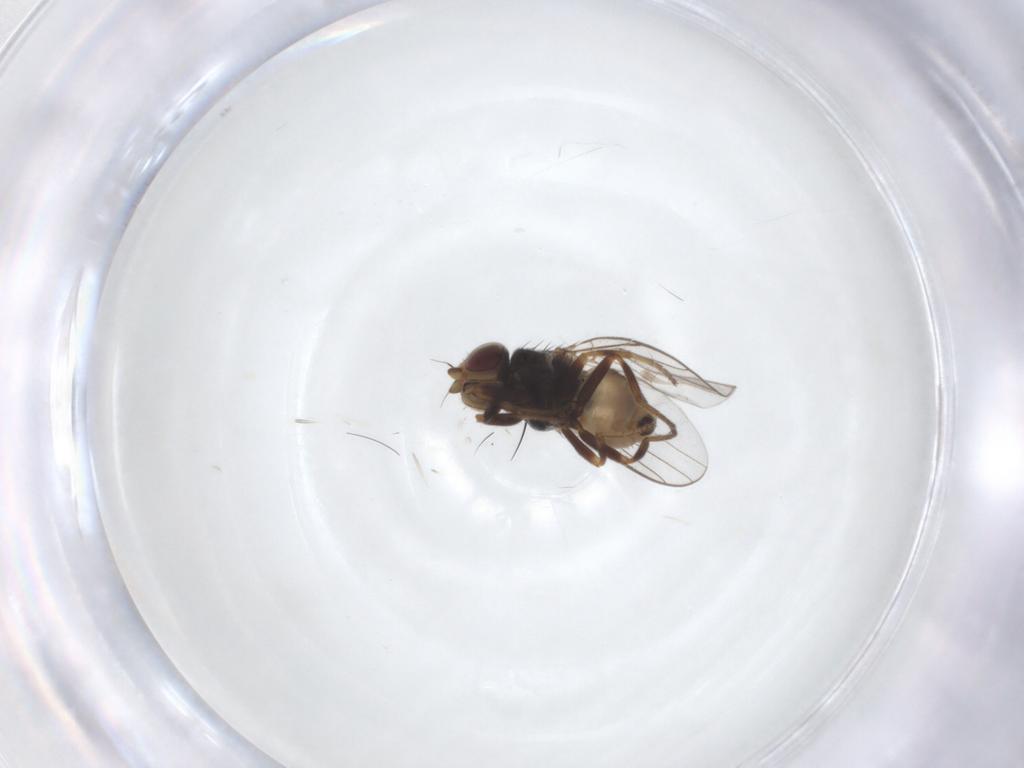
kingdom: Animalia
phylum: Arthropoda
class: Insecta
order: Diptera
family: Chloropidae
